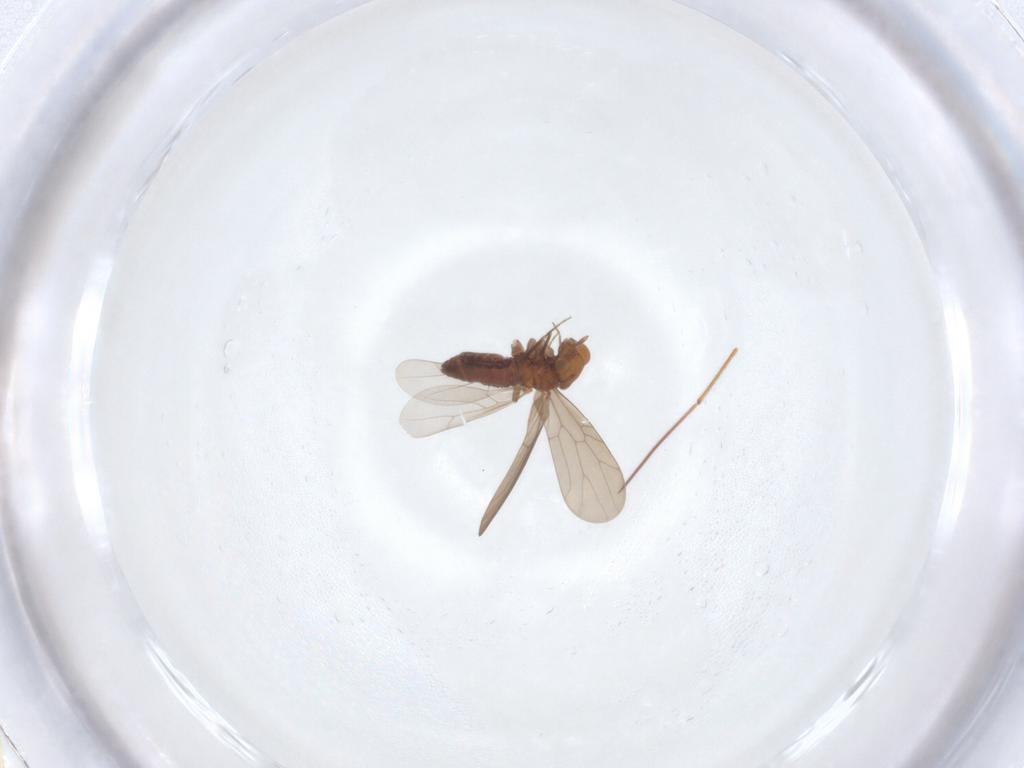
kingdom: Animalia
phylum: Arthropoda
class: Insecta
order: Psocodea
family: Lepidopsocidae
